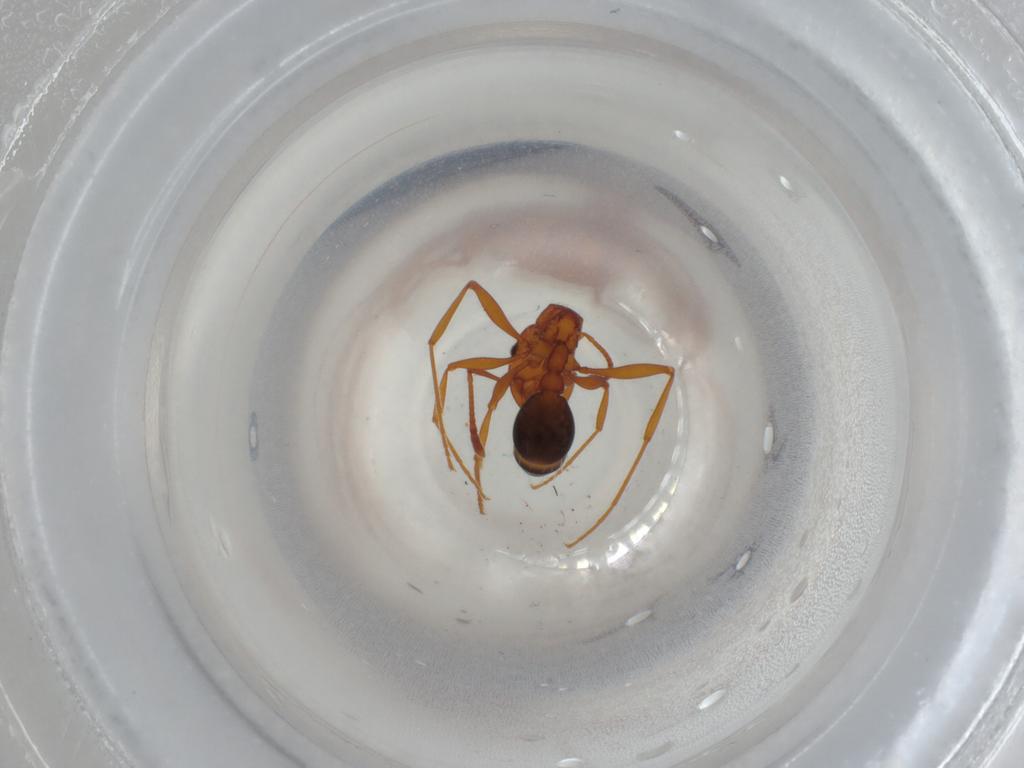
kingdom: Animalia
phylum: Arthropoda
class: Insecta
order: Hymenoptera
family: Formicidae
